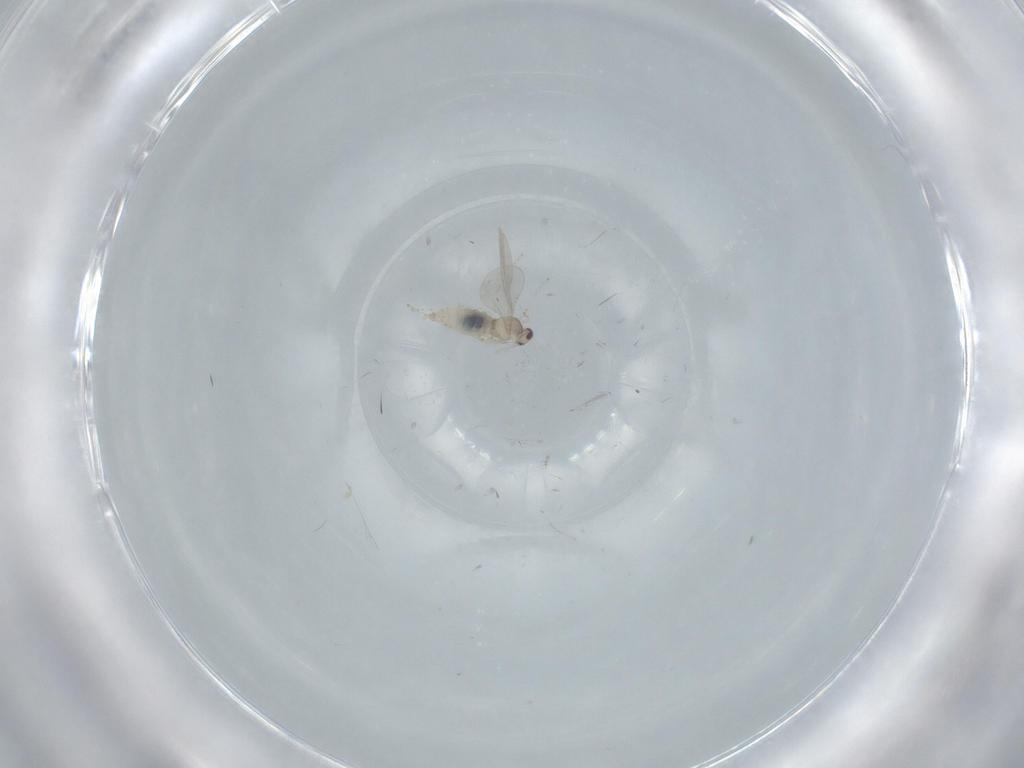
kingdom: Animalia
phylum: Arthropoda
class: Insecta
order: Diptera
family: Cecidomyiidae
